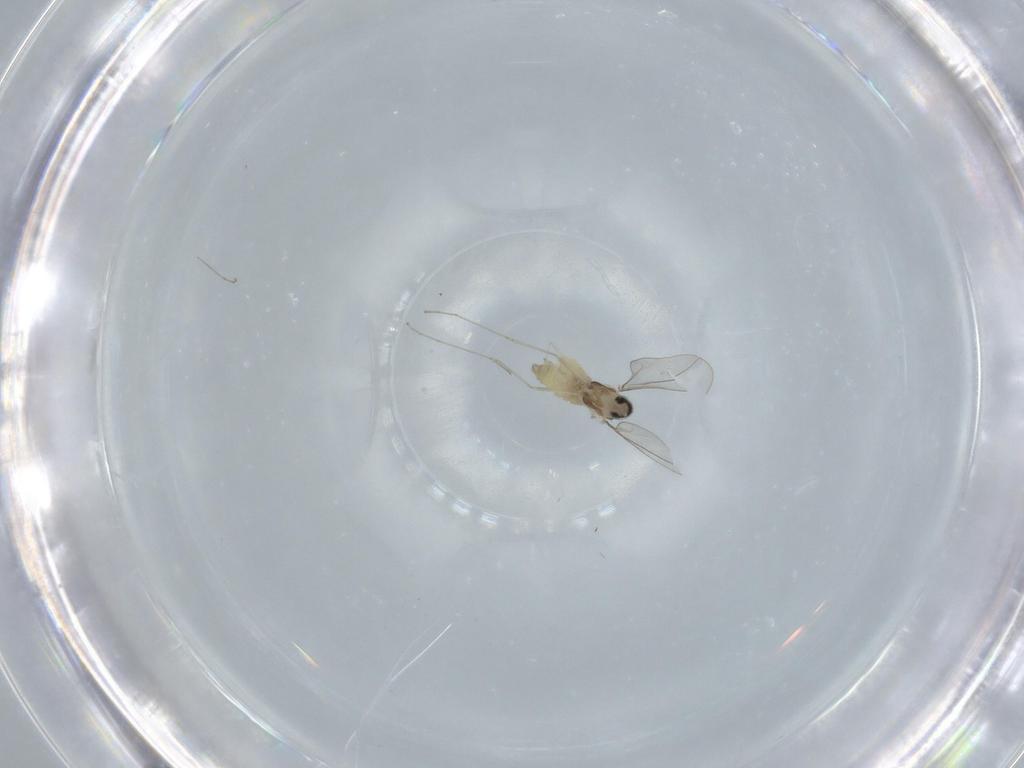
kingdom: Animalia
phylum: Arthropoda
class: Insecta
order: Diptera
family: Cecidomyiidae
